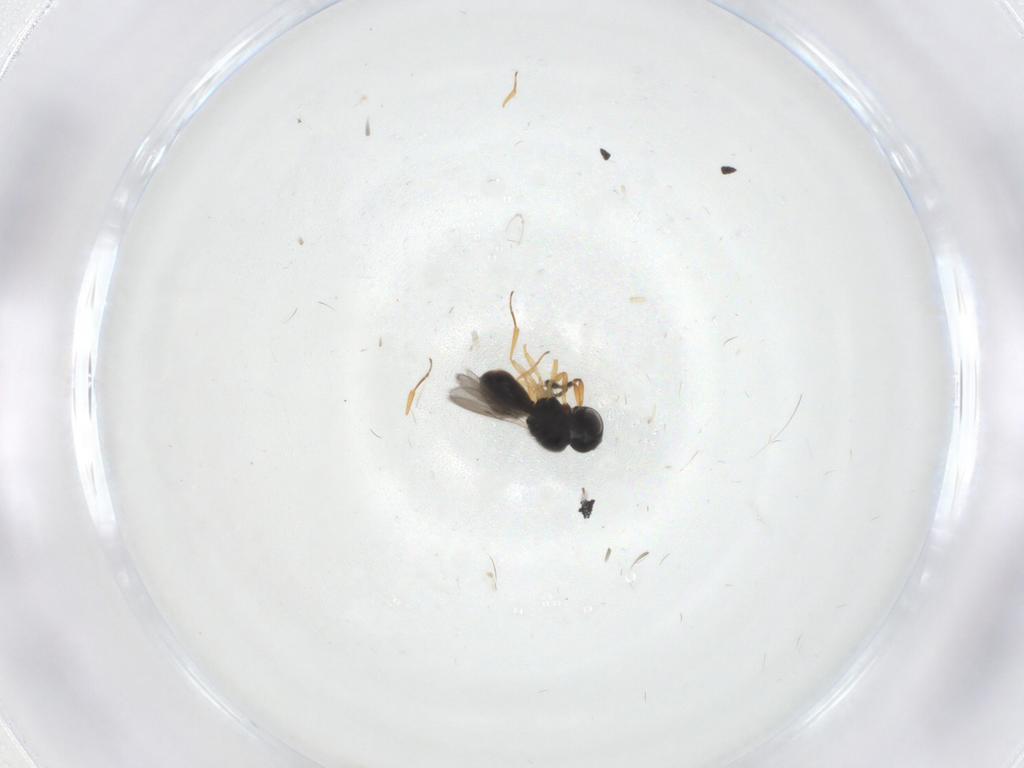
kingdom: Animalia
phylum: Arthropoda
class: Insecta
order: Hymenoptera
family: Scelionidae
